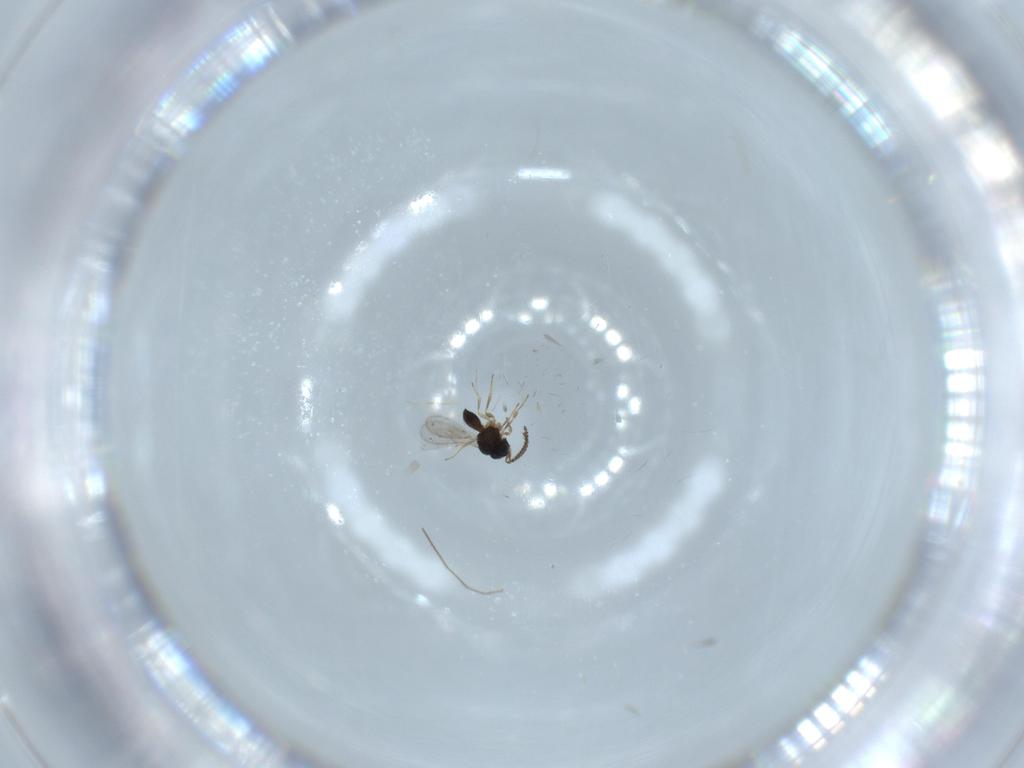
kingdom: Animalia
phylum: Arthropoda
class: Insecta
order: Hymenoptera
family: Scelionidae
